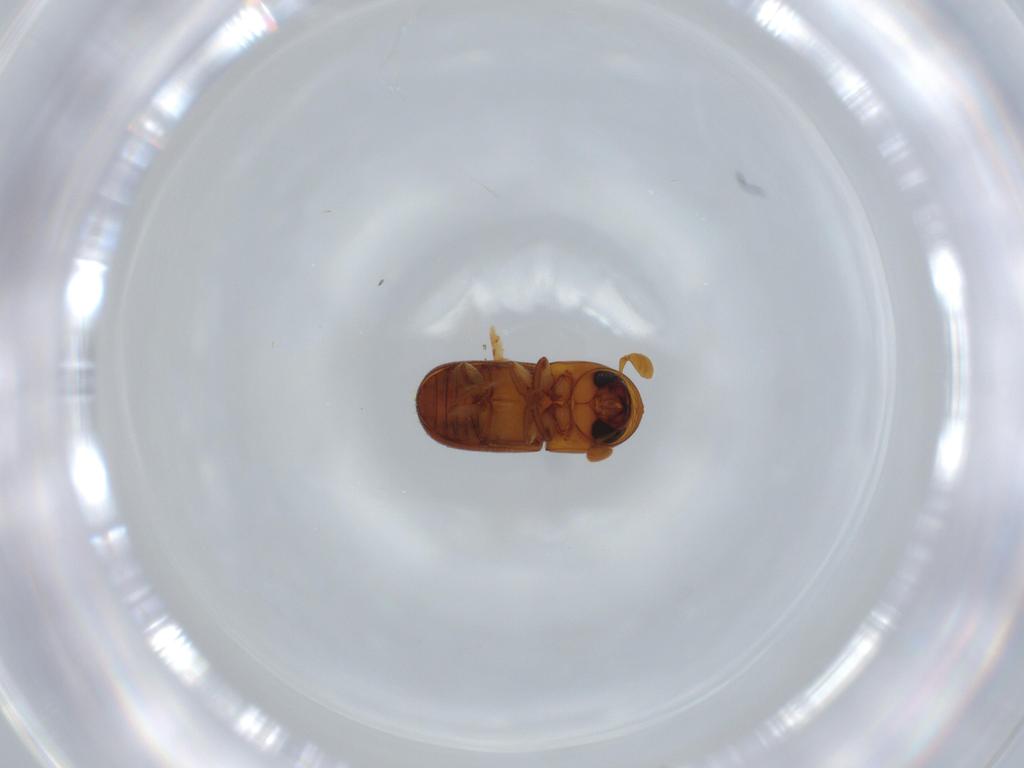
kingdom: Animalia
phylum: Arthropoda
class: Insecta
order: Coleoptera
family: Curculionidae
